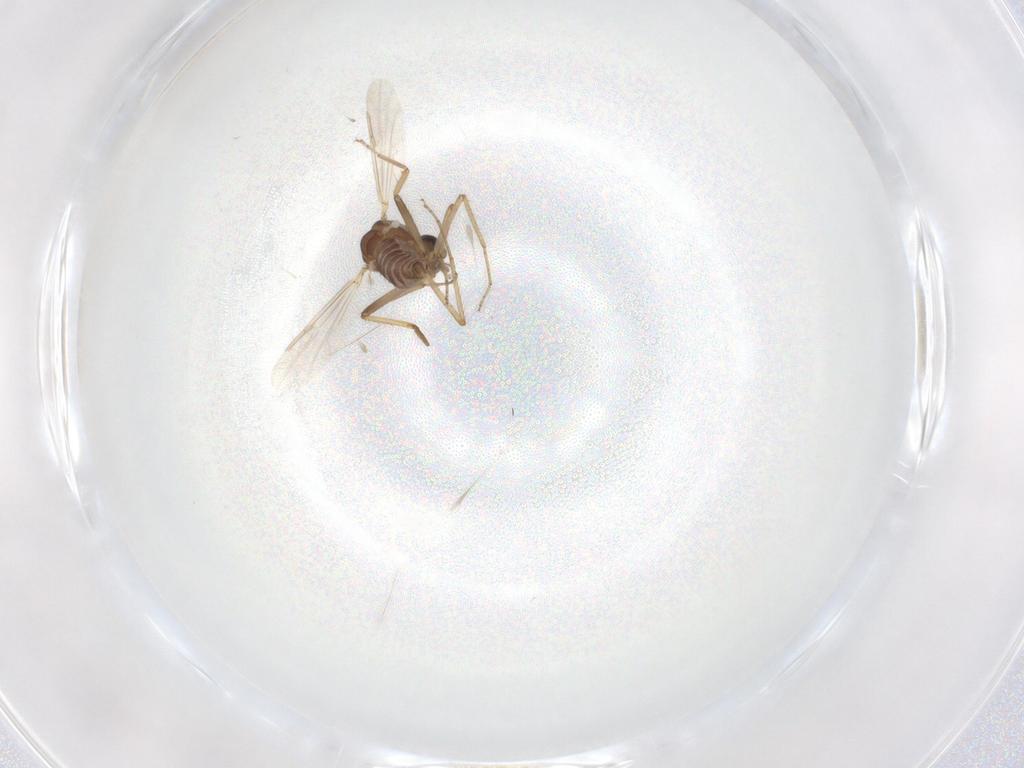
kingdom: Animalia
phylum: Arthropoda
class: Insecta
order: Diptera
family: Ceratopogonidae
